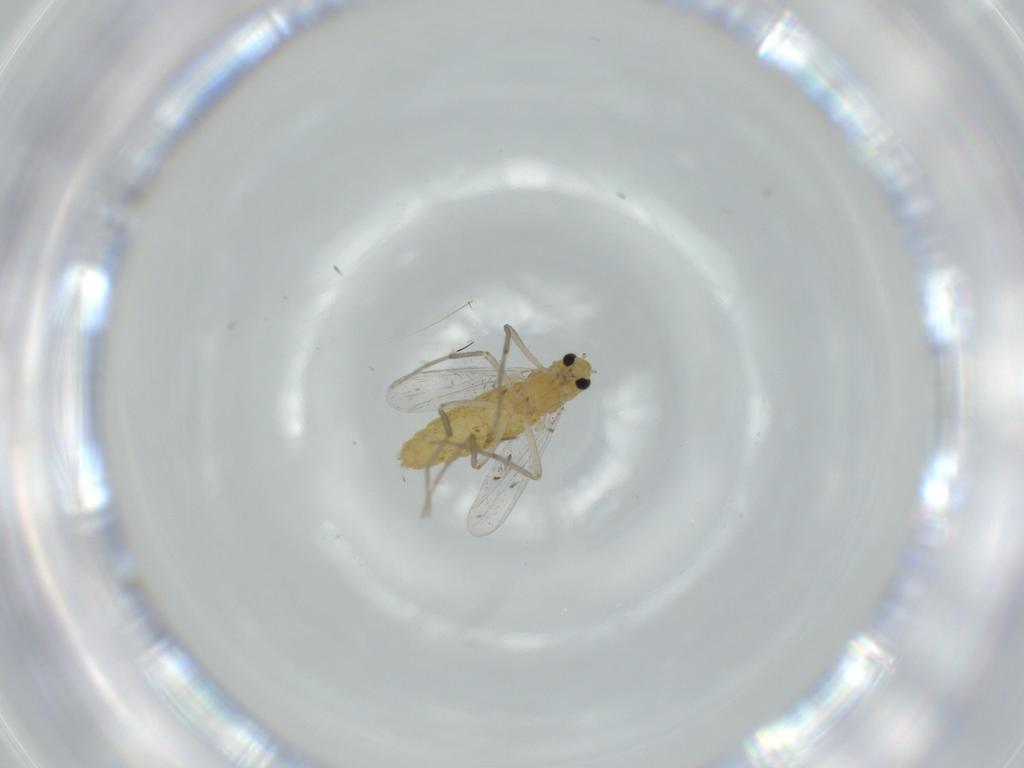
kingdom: Animalia
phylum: Arthropoda
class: Insecta
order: Diptera
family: Chironomidae
